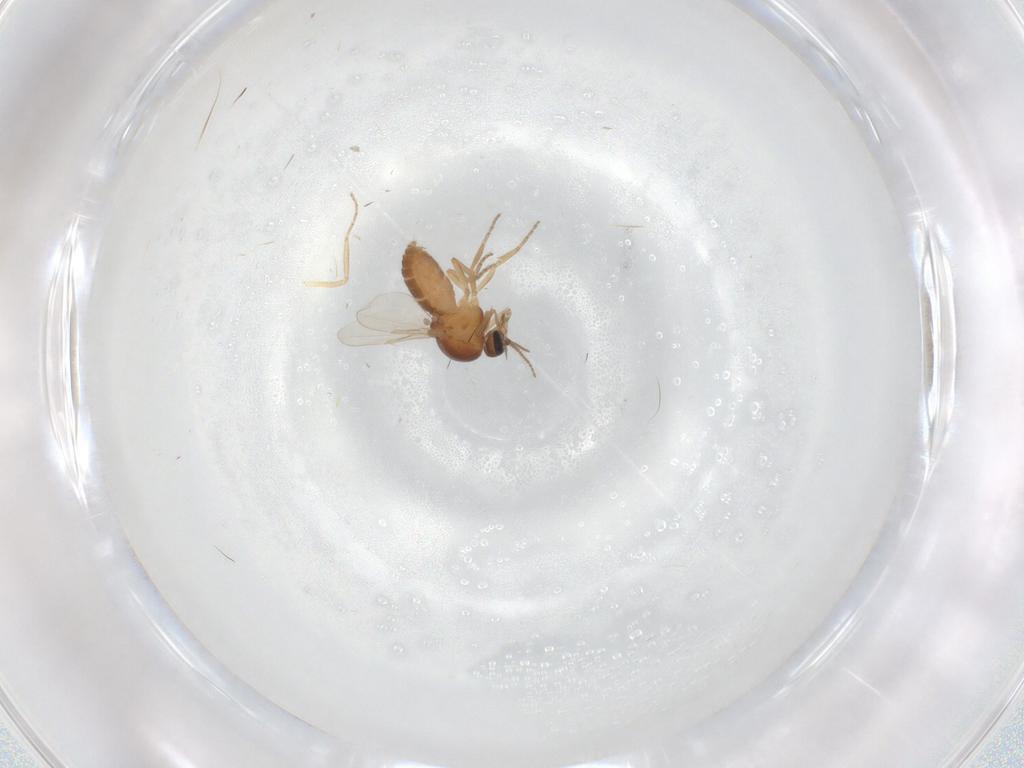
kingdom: Animalia
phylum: Arthropoda
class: Insecta
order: Diptera
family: Ceratopogonidae
